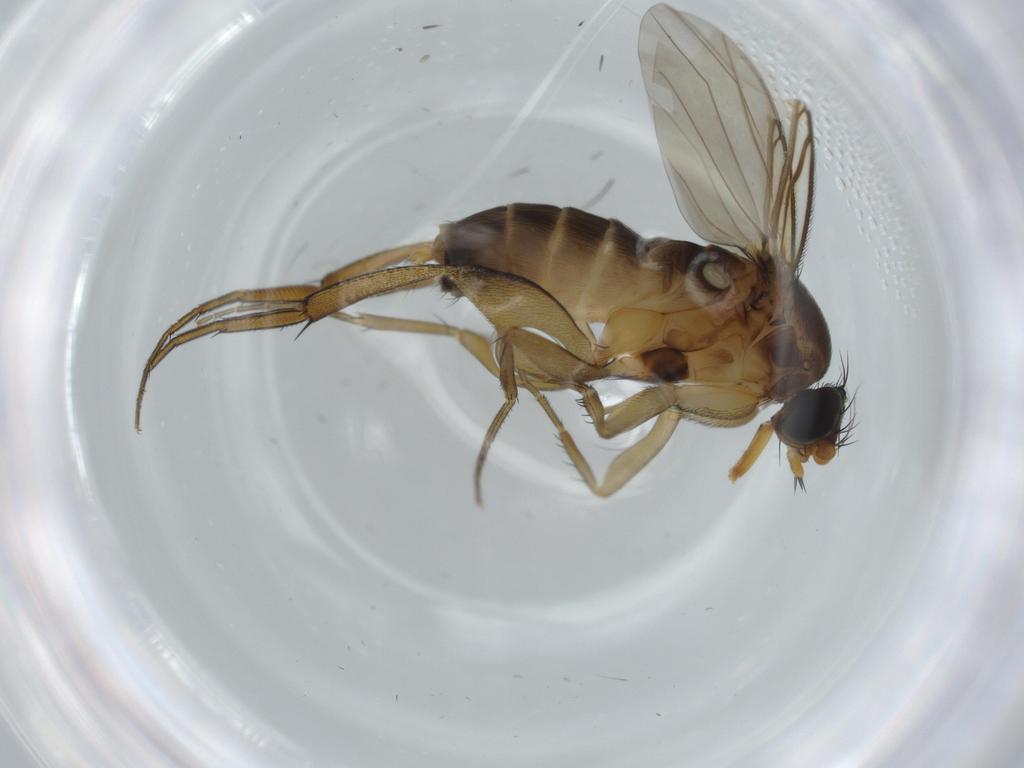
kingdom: Animalia
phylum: Arthropoda
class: Insecta
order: Diptera
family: Phoridae
